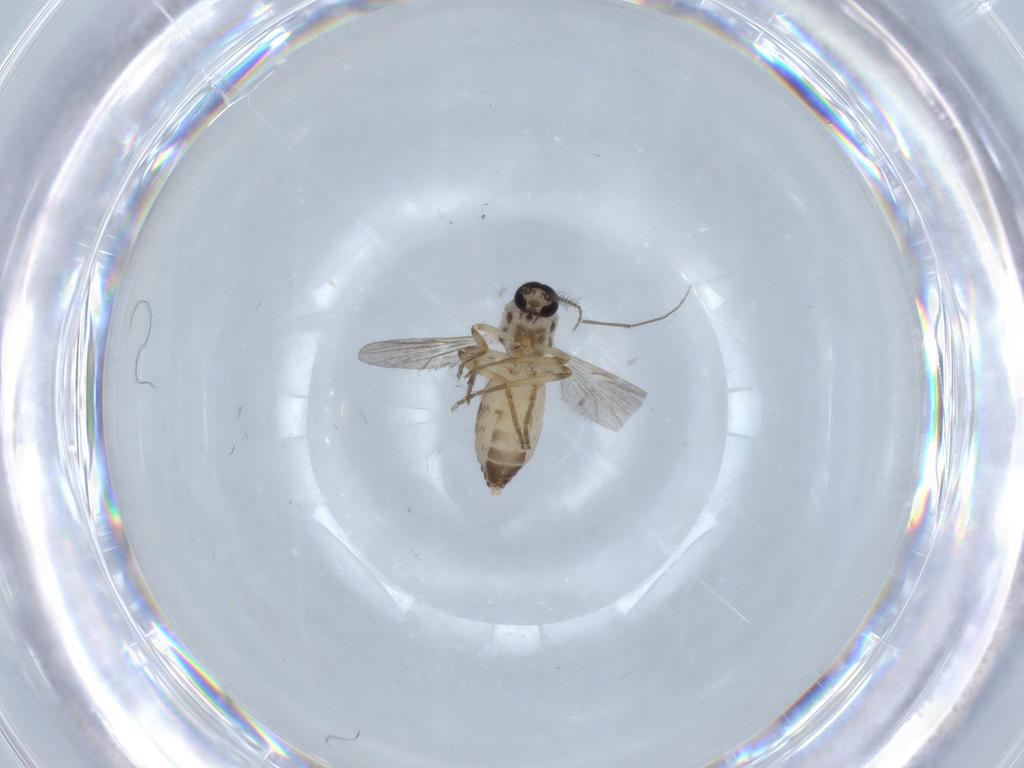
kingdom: Animalia
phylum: Arthropoda
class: Insecta
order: Diptera
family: Ceratopogonidae
